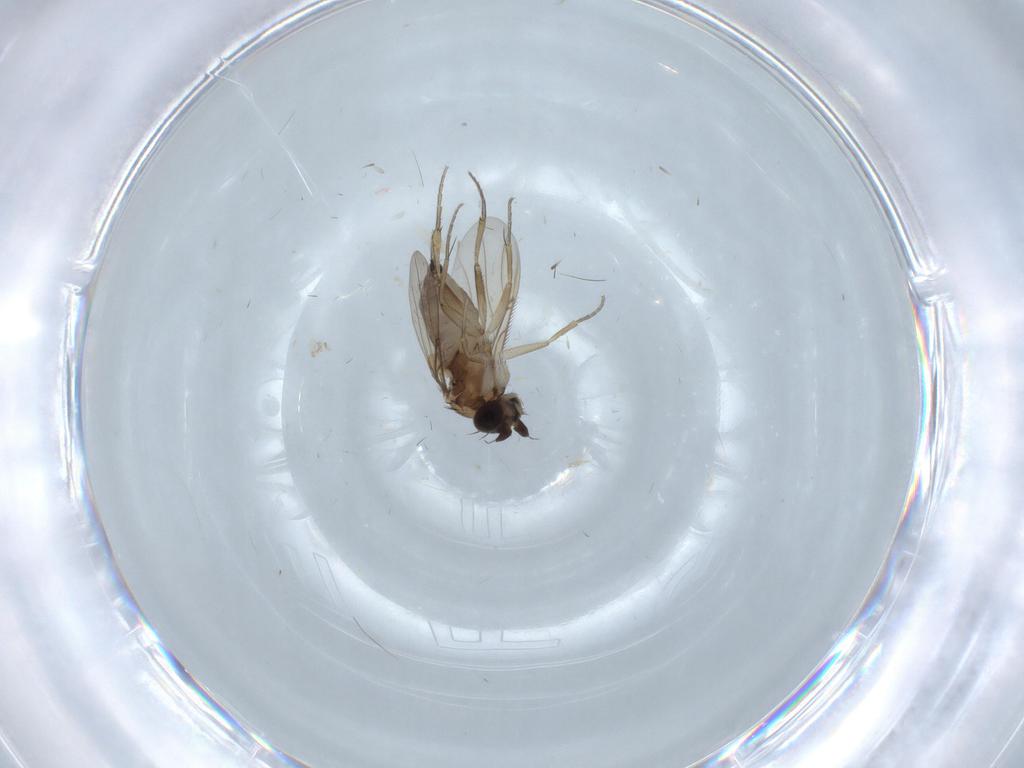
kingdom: Animalia
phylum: Arthropoda
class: Insecta
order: Diptera
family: Phoridae
